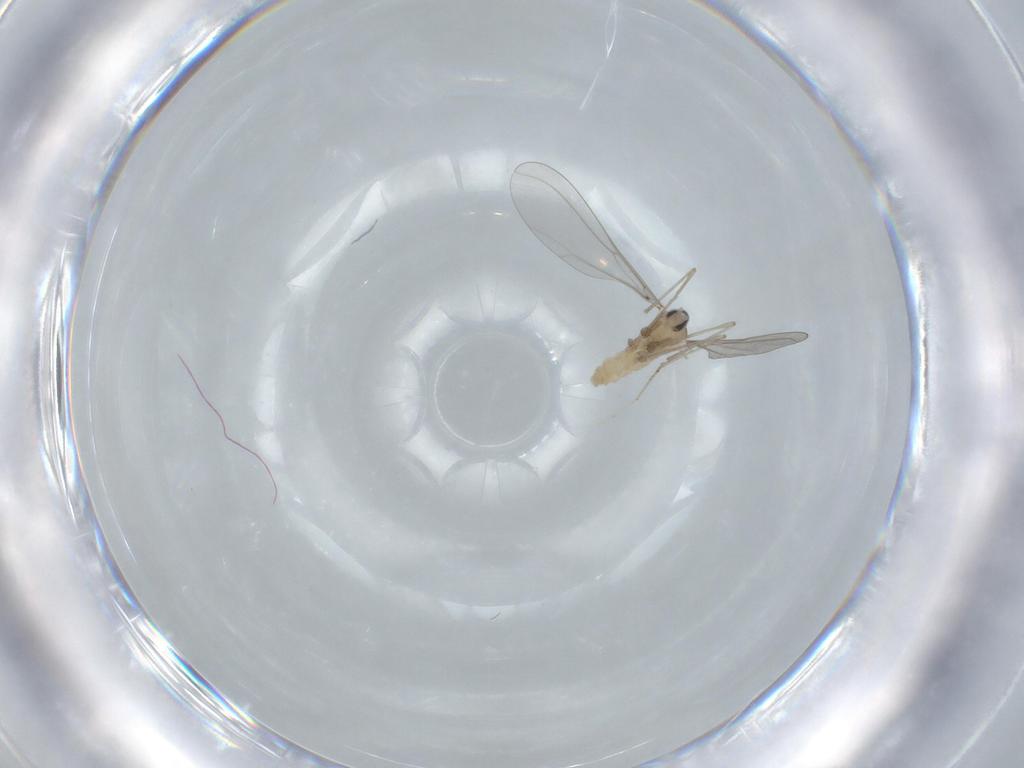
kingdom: Animalia
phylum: Arthropoda
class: Insecta
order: Diptera
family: Cecidomyiidae
